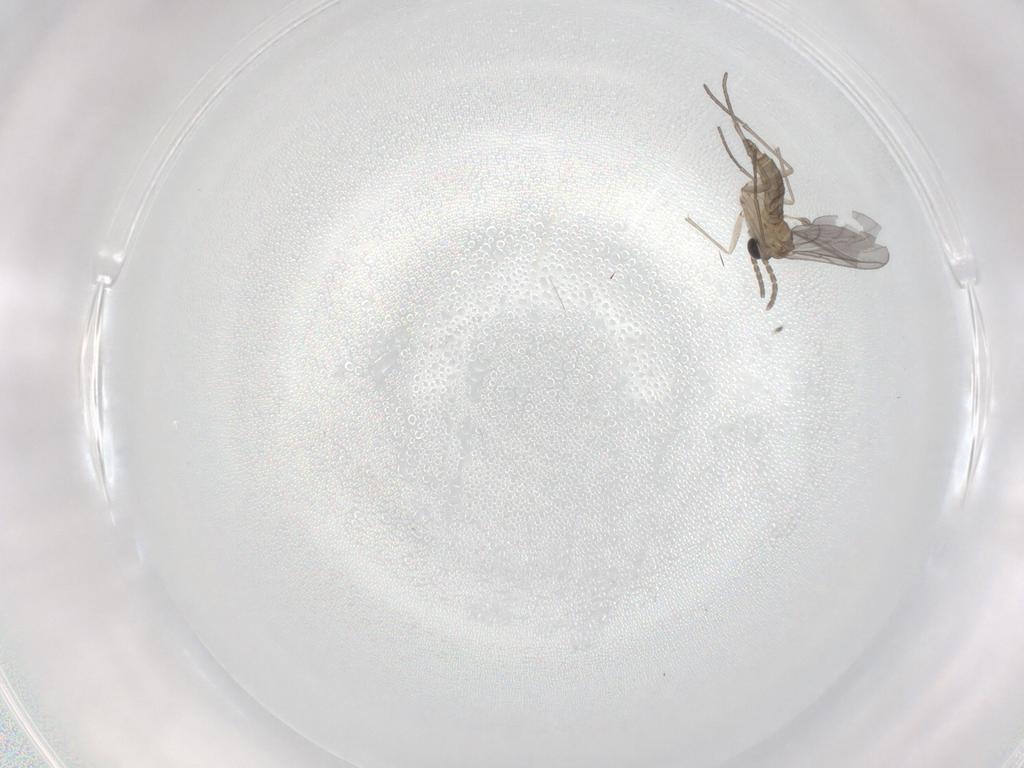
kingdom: Animalia
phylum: Arthropoda
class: Insecta
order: Diptera
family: Sciaridae
